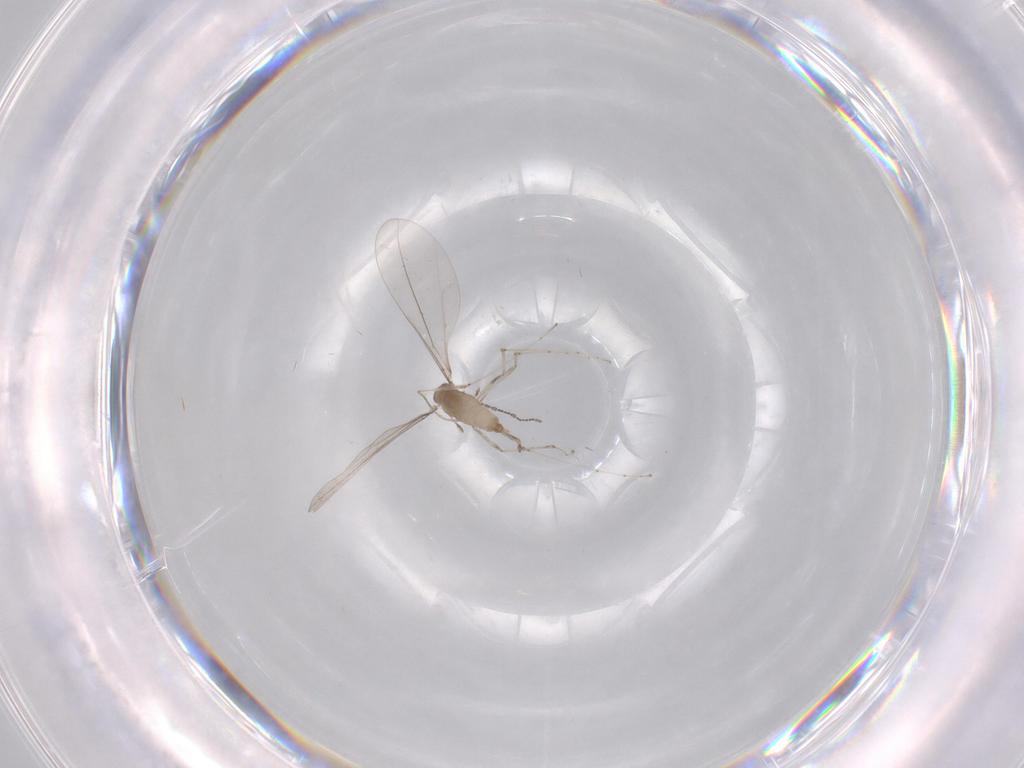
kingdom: Animalia
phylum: Arthropoda
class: Insecta
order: Diptera
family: Cecidomyiidae
